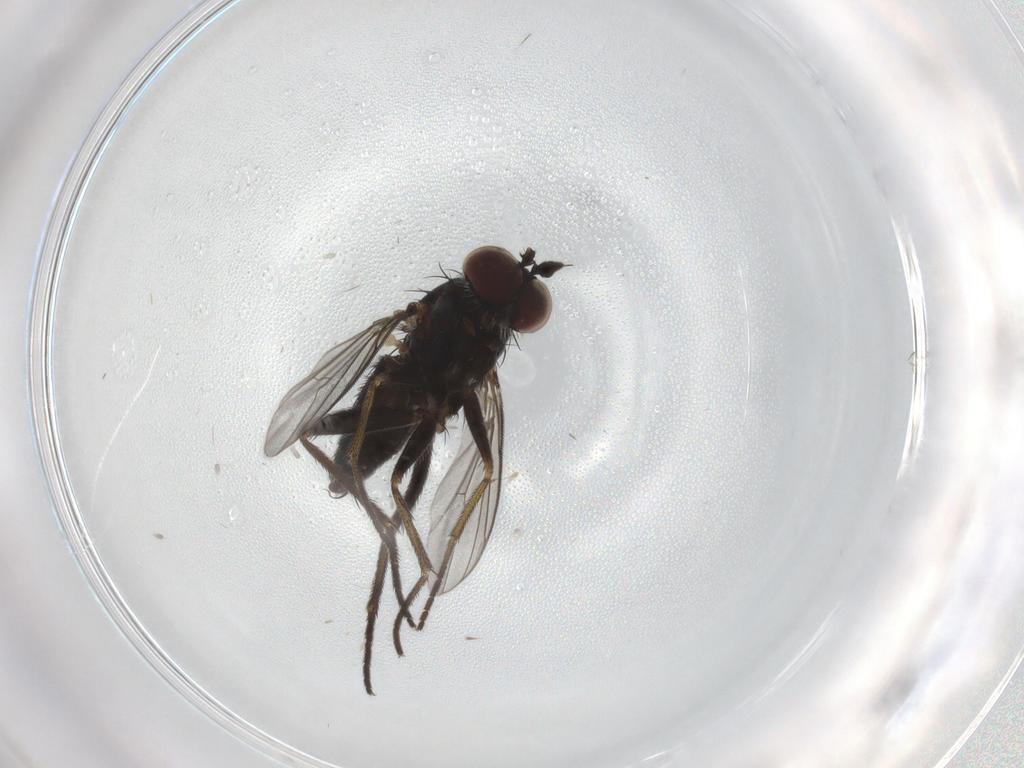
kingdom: Animalia
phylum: Arthropoda
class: Insecta
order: Diptera
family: Dolichopodidae
